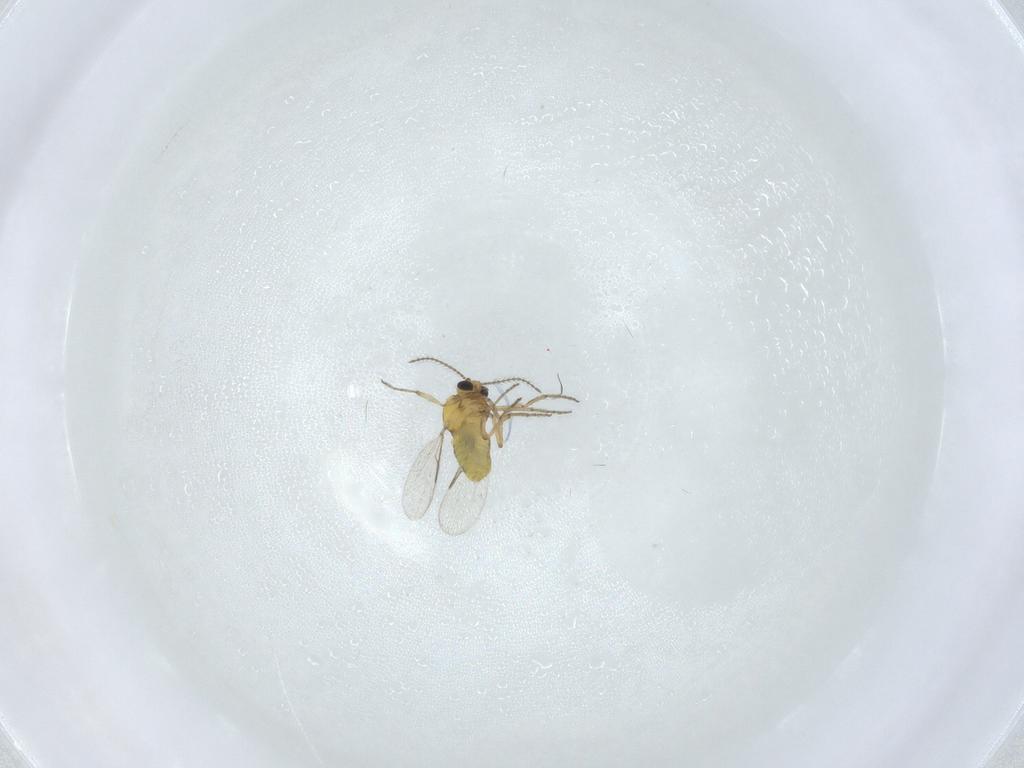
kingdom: Animalia
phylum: Arthropoda
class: Insecta
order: Diptera
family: Ceratopogonidae
